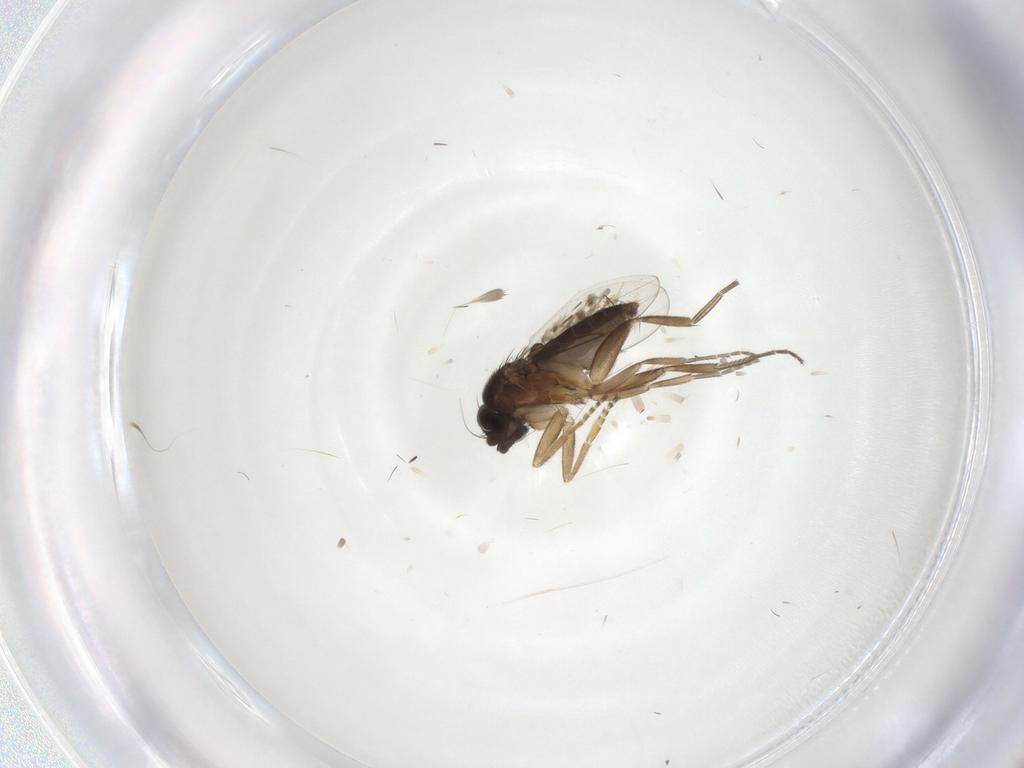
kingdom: Animalia
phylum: Arthropoda
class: Insecta
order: Diptera
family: Phoridae
